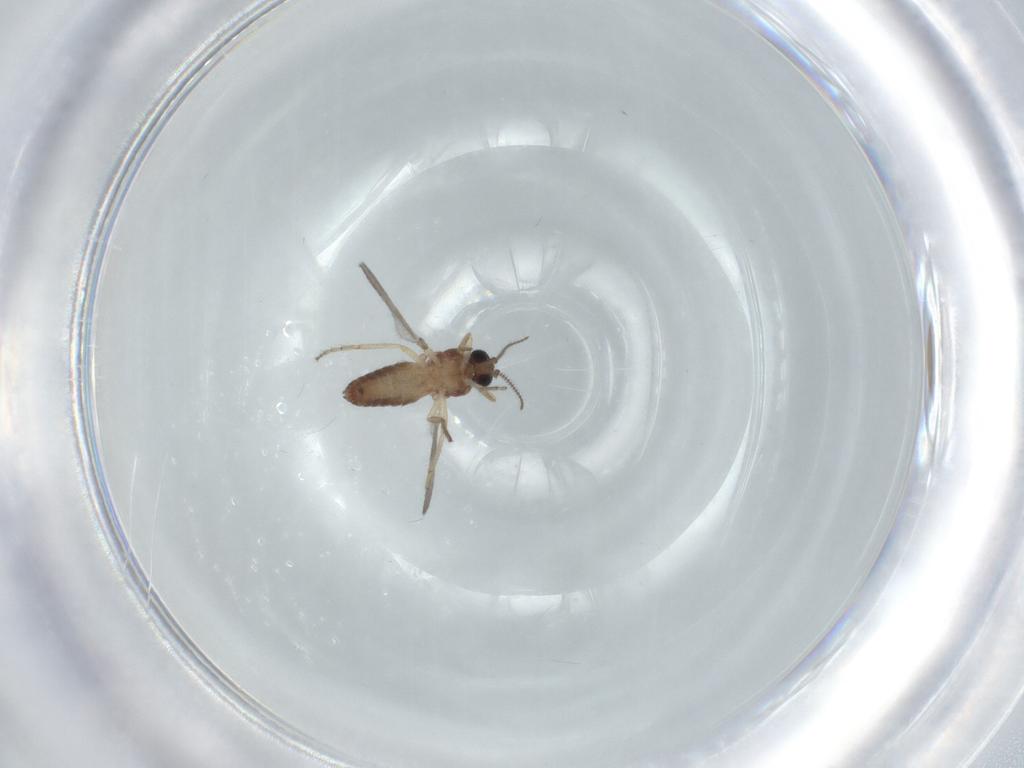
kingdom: Animalia
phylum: Arthropoda
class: Insecta
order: Diptera
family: Ceratopogonidae
